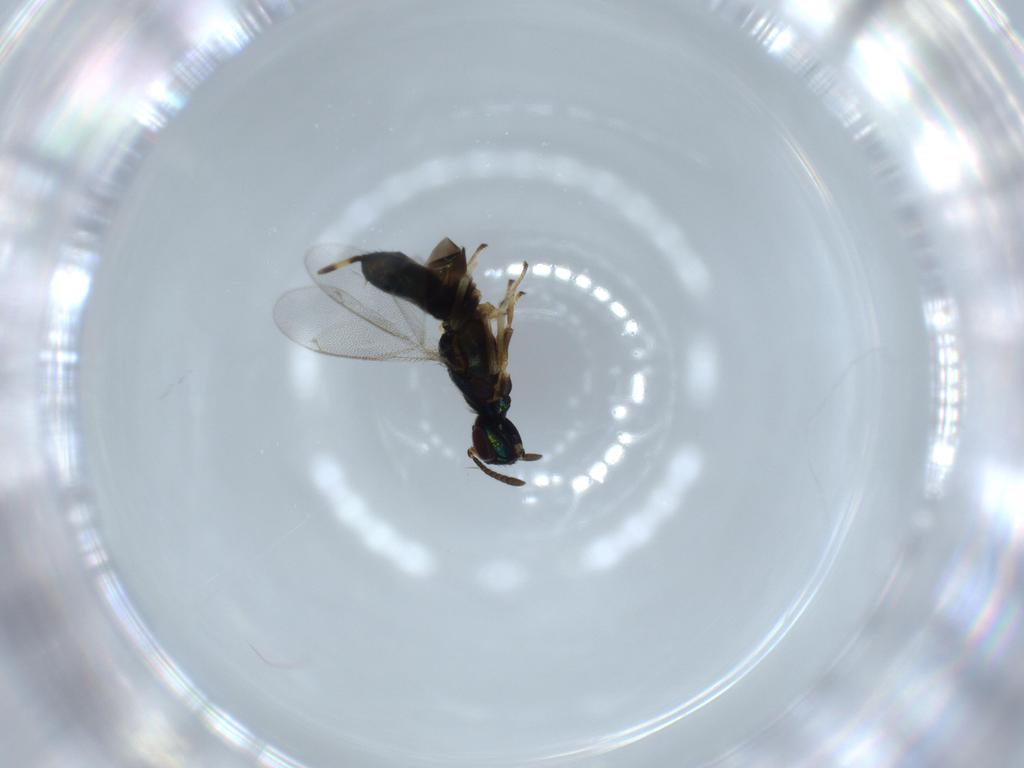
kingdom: Animalia
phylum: Arthropoda
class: Insecta
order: Hymenoptera
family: Eupelmidae
